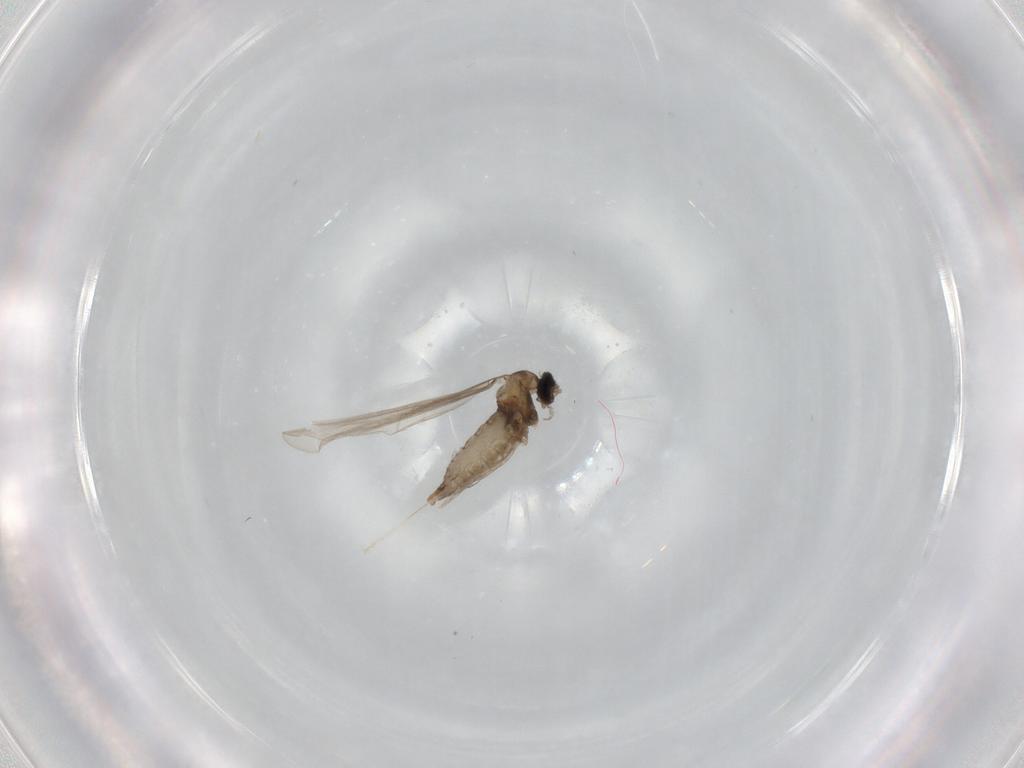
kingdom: Animalia
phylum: Arthropoda
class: Insecta
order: Diptera
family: Cecidomyiidae
